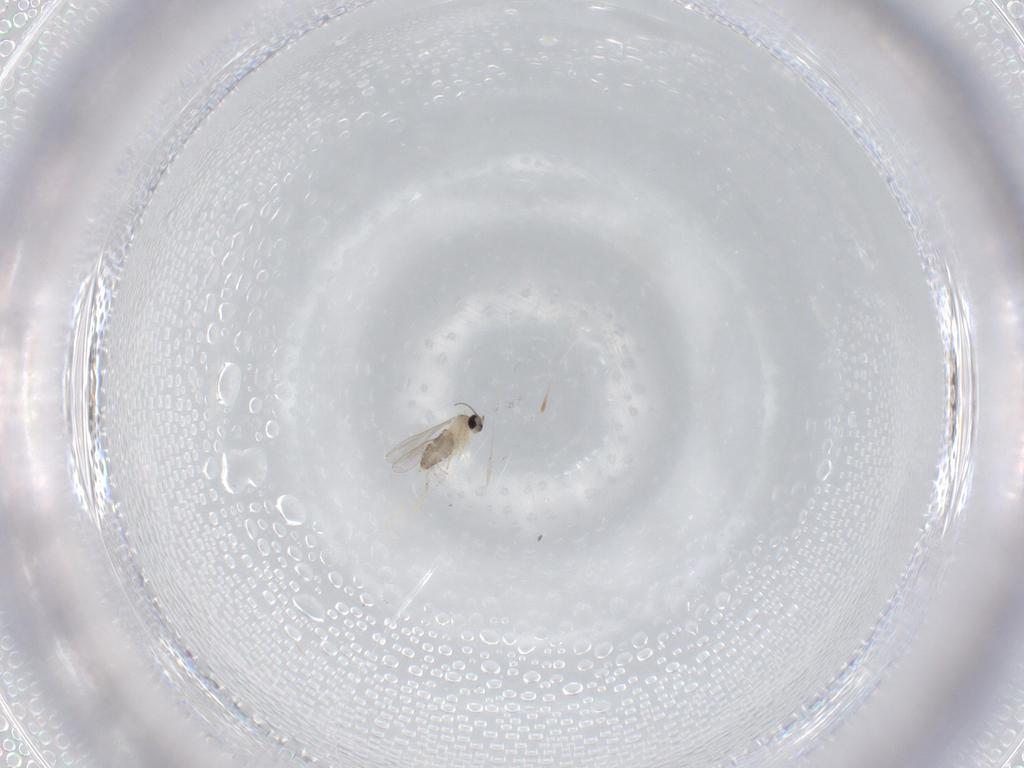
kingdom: Animalia
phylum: Arthropoda
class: Insecta
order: Diptera
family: Cecidomyiidae
